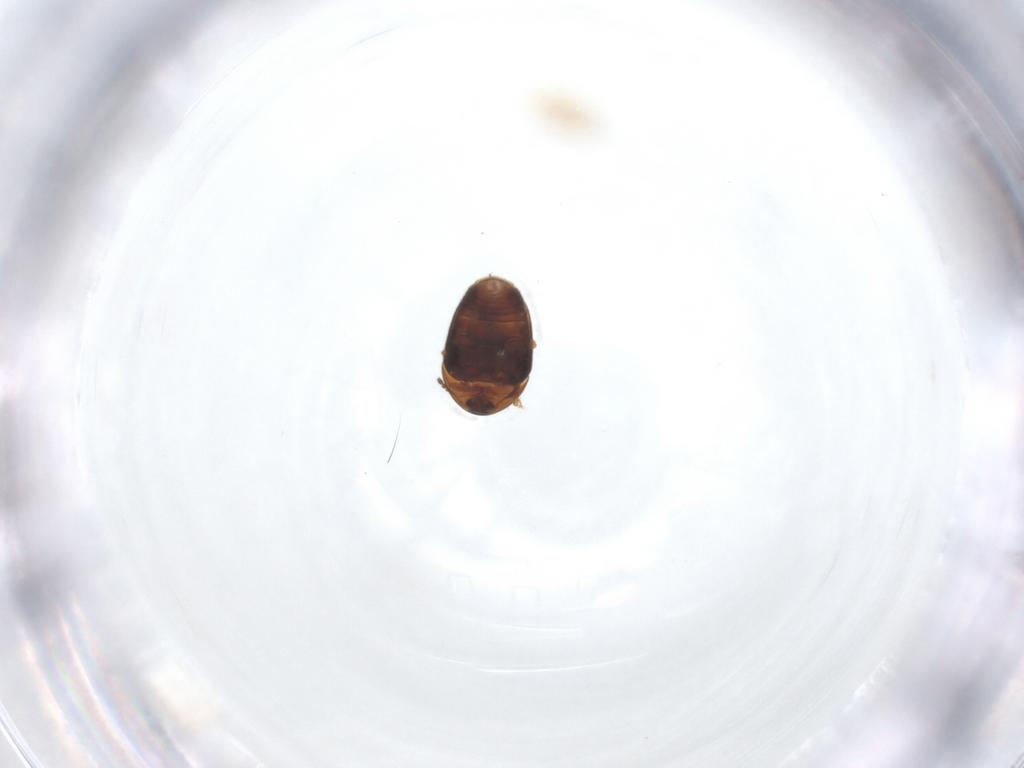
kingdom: Animalia
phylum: Arthropoda
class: Insecta
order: Coleoptera
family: Corylophidae
